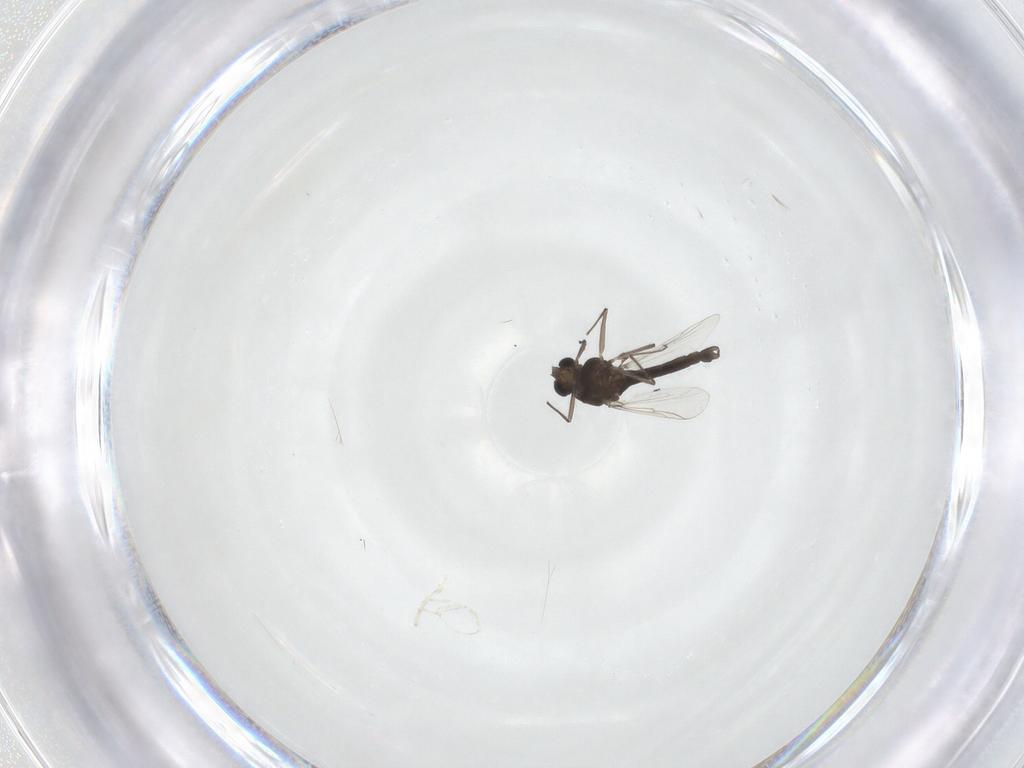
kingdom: Animalia
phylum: Arthropoda
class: Insecta
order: Diptera
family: Chironomidae
